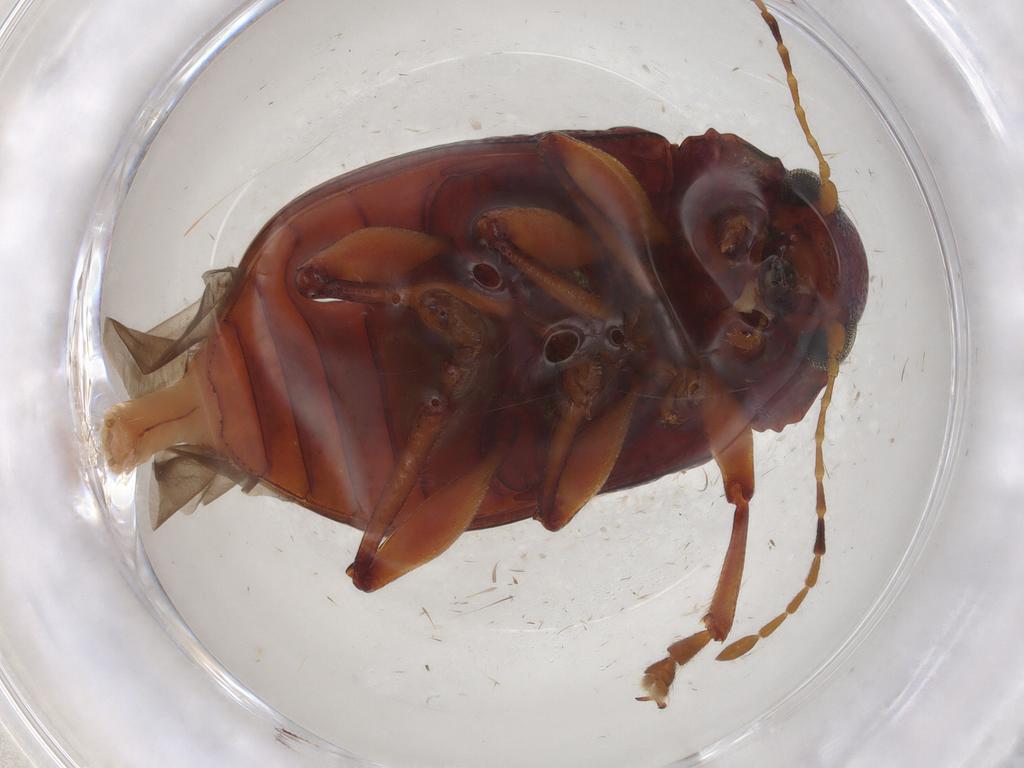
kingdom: Animalia
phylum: Arthropoda
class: Insecta
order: Coleoptera
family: Chrysomelidae
